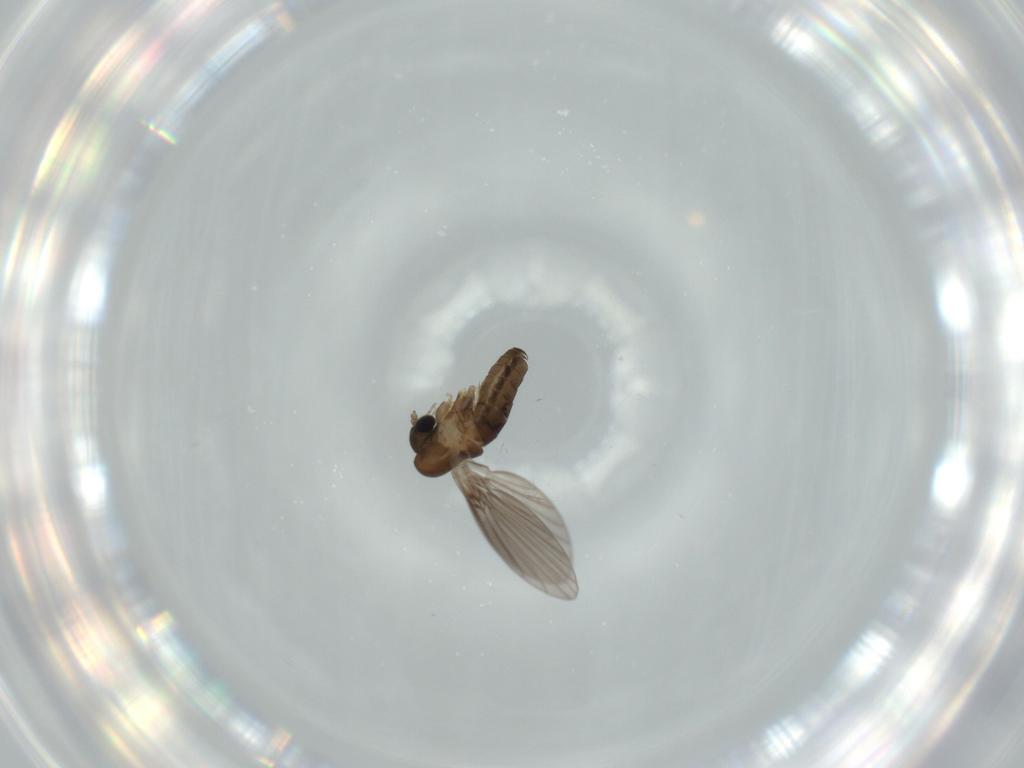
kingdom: Animalia
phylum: Arthropoda
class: Insecta
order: Diptera
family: Psychodidae
